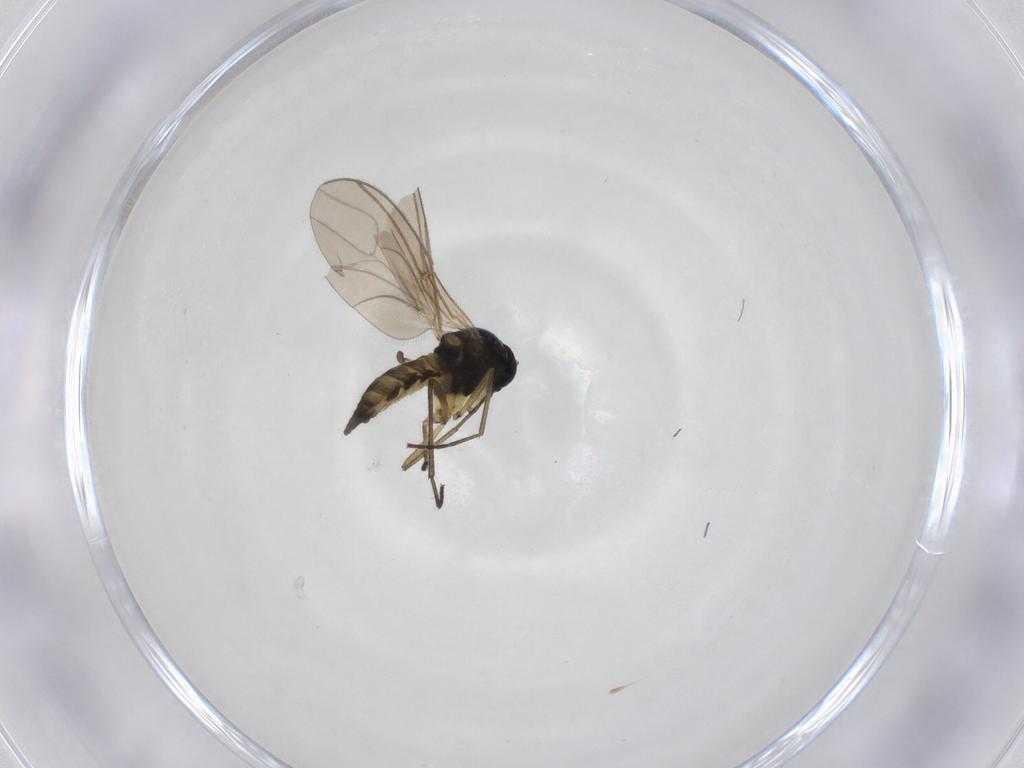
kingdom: Animalia
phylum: Arthropoda
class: Insecta
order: Diptera
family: Sciaridae
